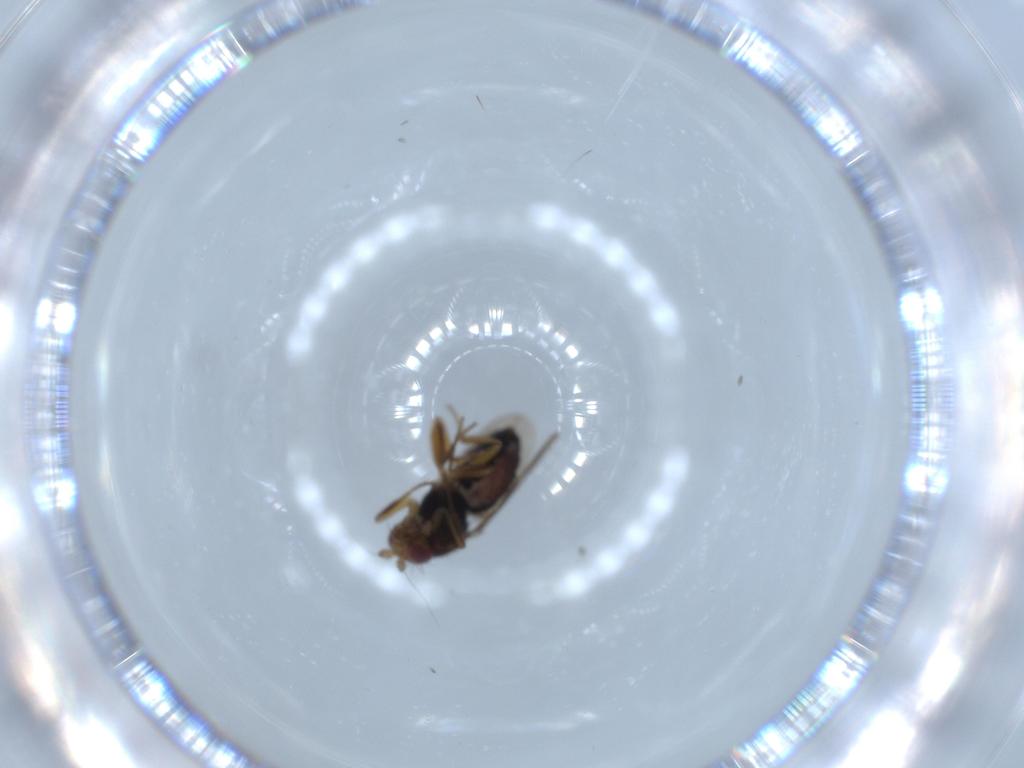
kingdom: Animalia
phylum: Arthropoda
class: Insecta
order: Diptera
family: Sphaeroceridae
